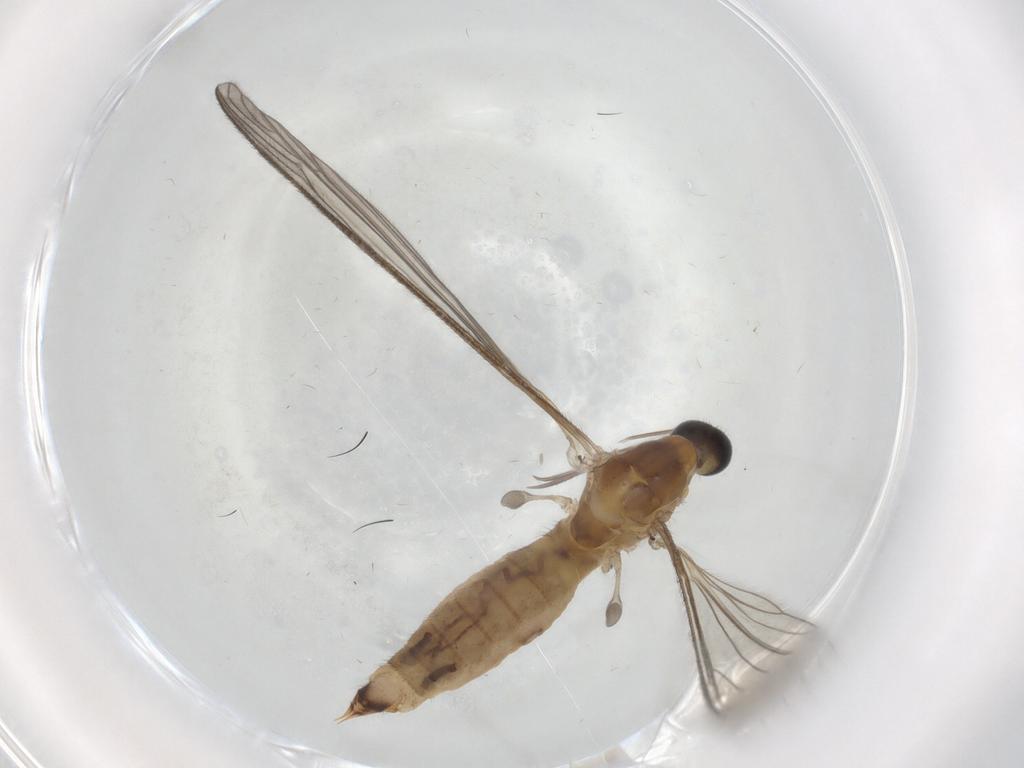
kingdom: Animalia
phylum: Arthropoda
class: Insecta
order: Diptera
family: Limoniidae
